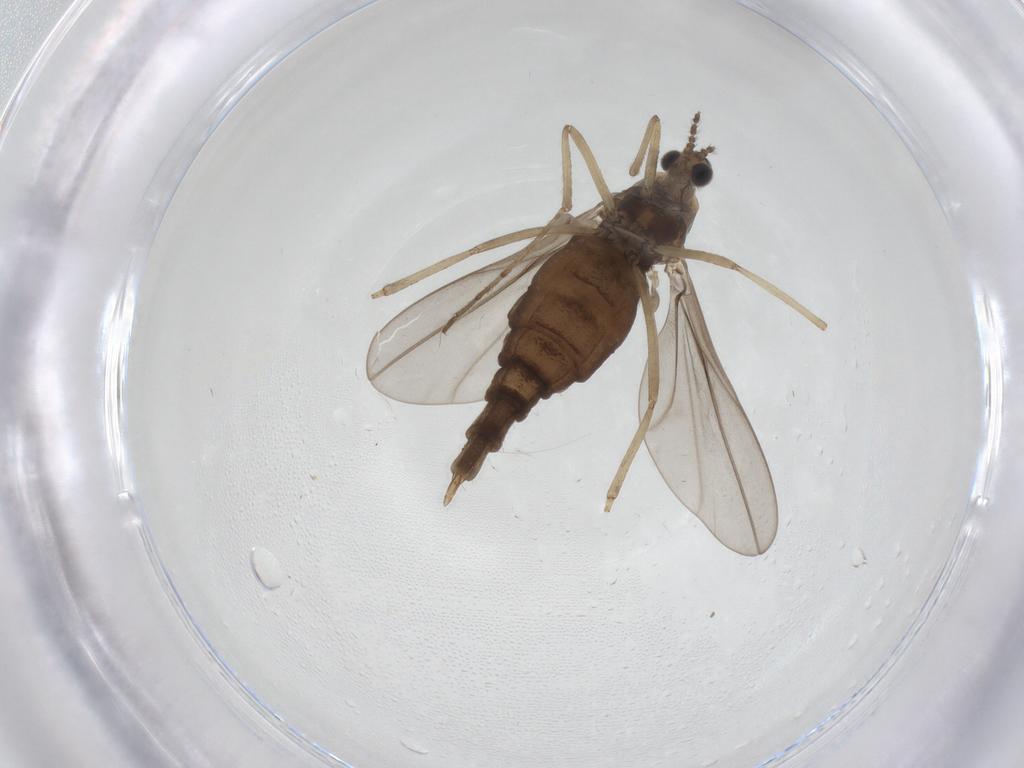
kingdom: Animalia
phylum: Arthropoda
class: Insecta
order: Diptera
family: Cecidomyiidae
